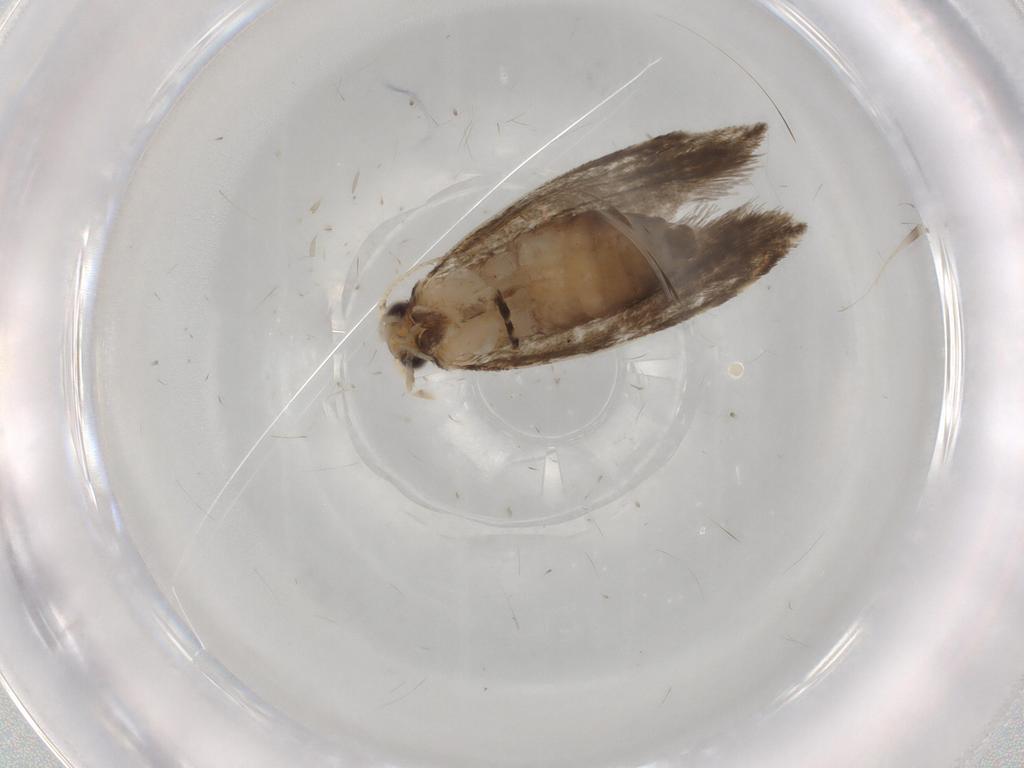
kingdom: Animalia
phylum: Arthropoda
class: Insecta
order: Lepidoptera
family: Tineidae
